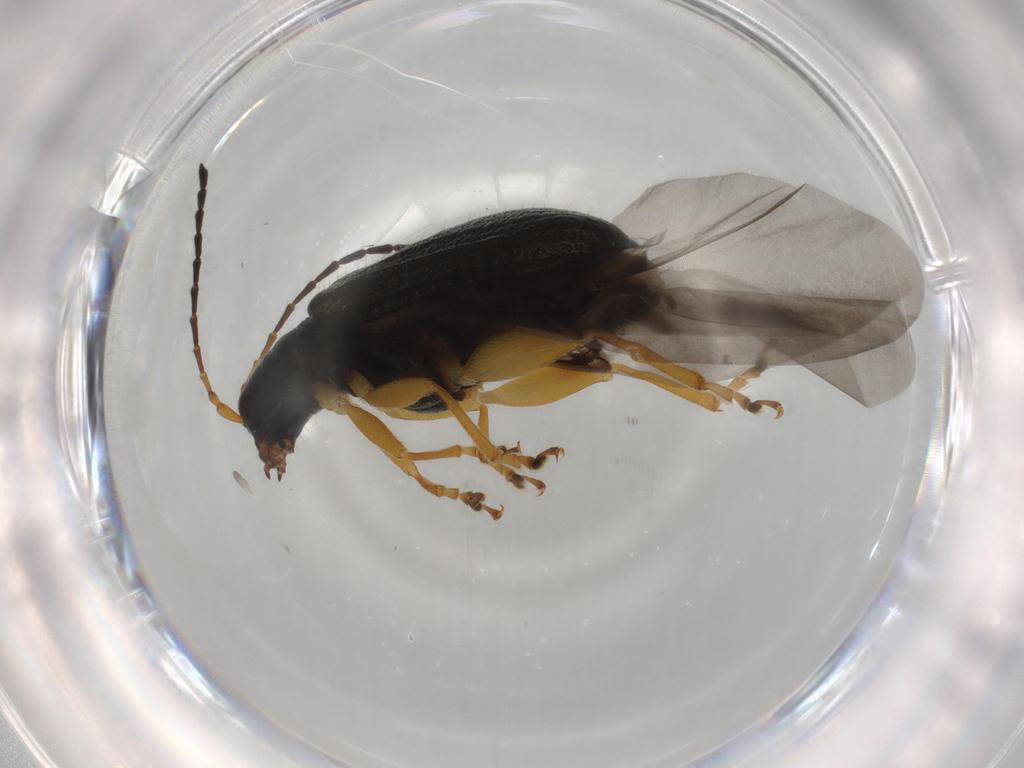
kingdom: Animalia
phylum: Arthropoda
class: Insecta
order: Coleoptera
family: Chrysomelidae
